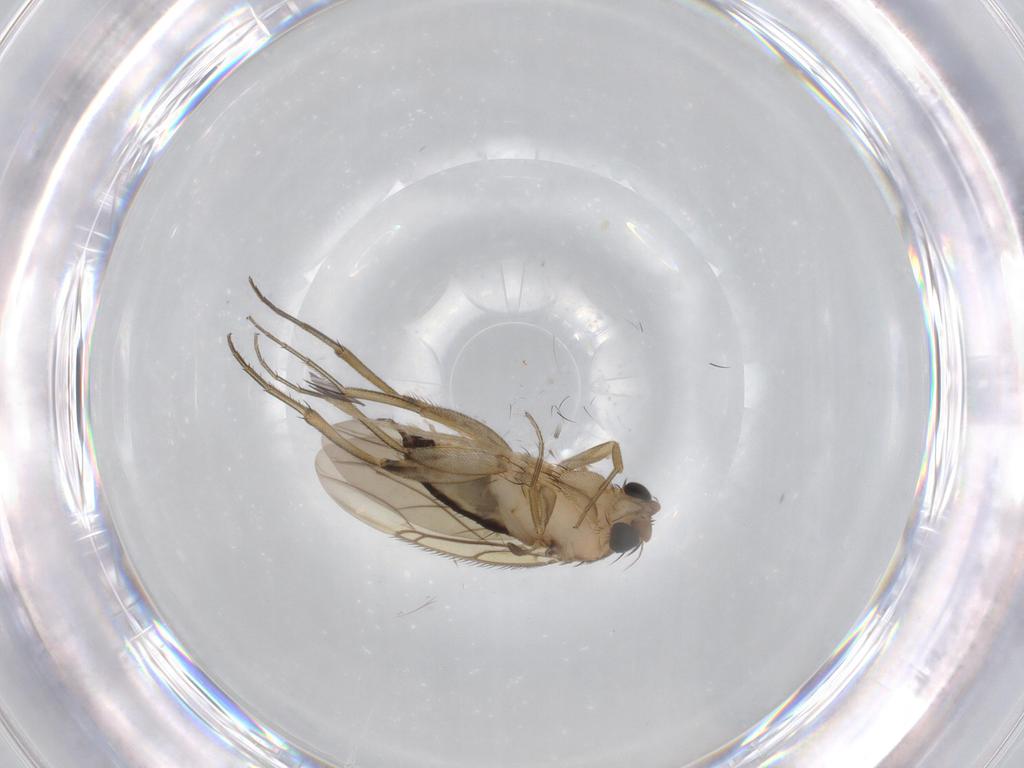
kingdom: Animalia
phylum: Arthropoda
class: Insecta
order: Diptera
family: Phoridae
